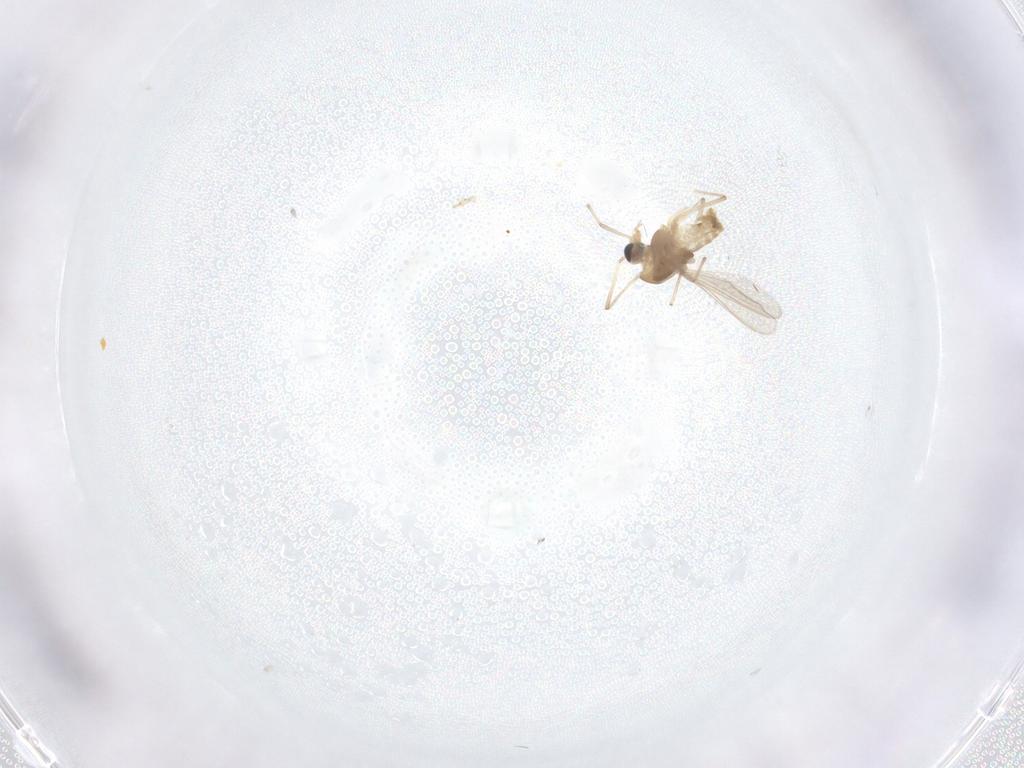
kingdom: Animalia
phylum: Arthropoda
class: Insecta
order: Diptera
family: Chironomidae
